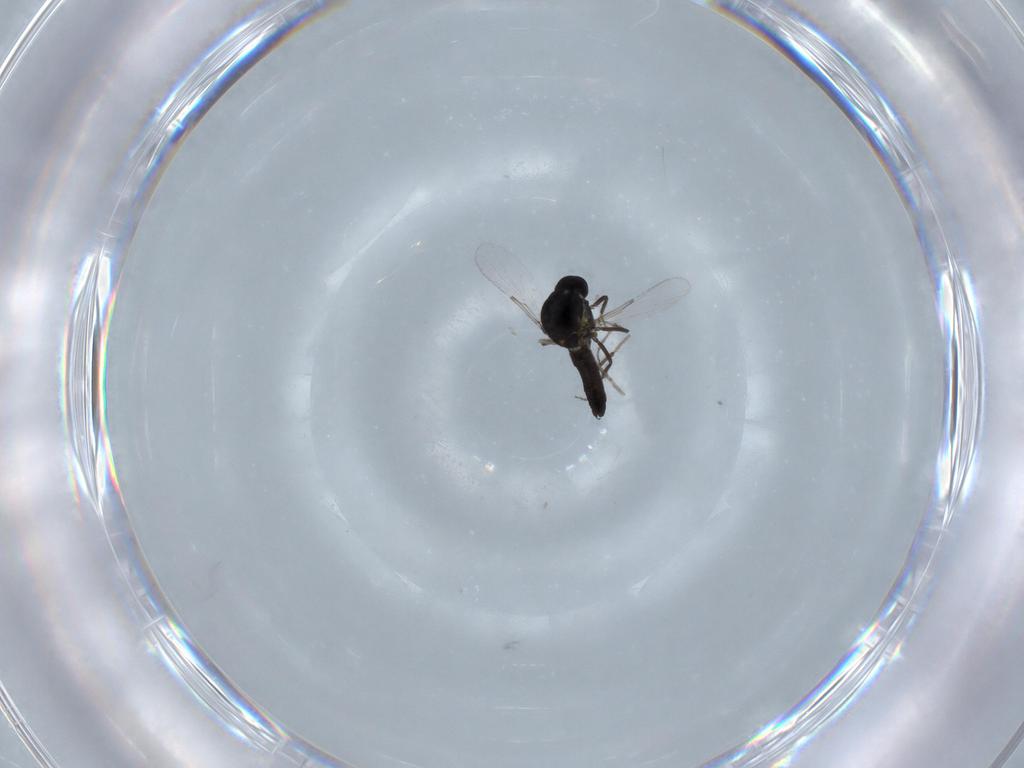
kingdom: Animalia
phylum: Arthropoda
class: Insecta
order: Diptera
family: Ceratopogonidae
